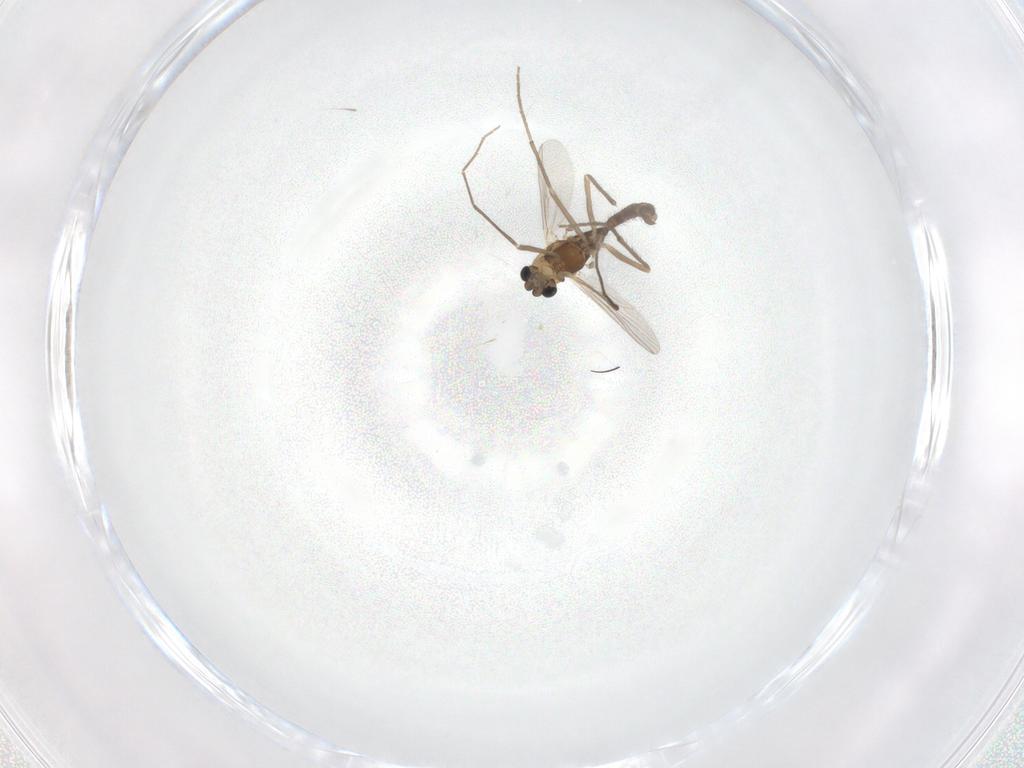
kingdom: Animalia
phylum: Arthropoda
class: Insecta
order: Diptera
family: Chironomidae
